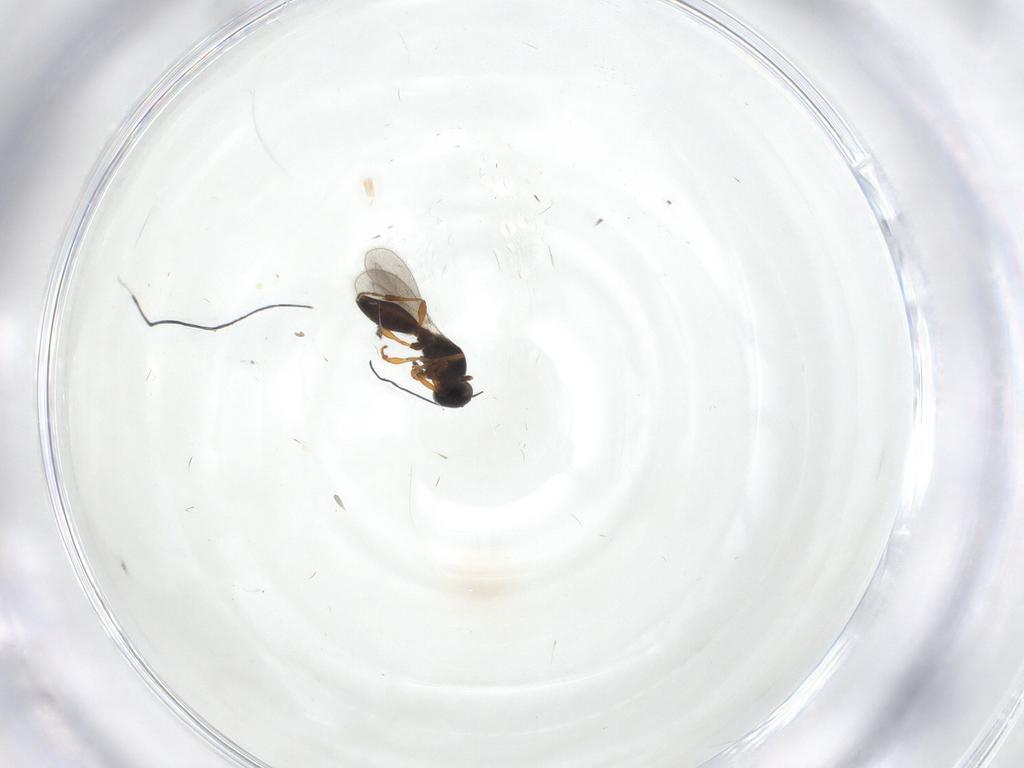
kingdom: Animalia
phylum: Arthropoda
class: Insecta
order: Hymenoptera
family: Platygastridae
